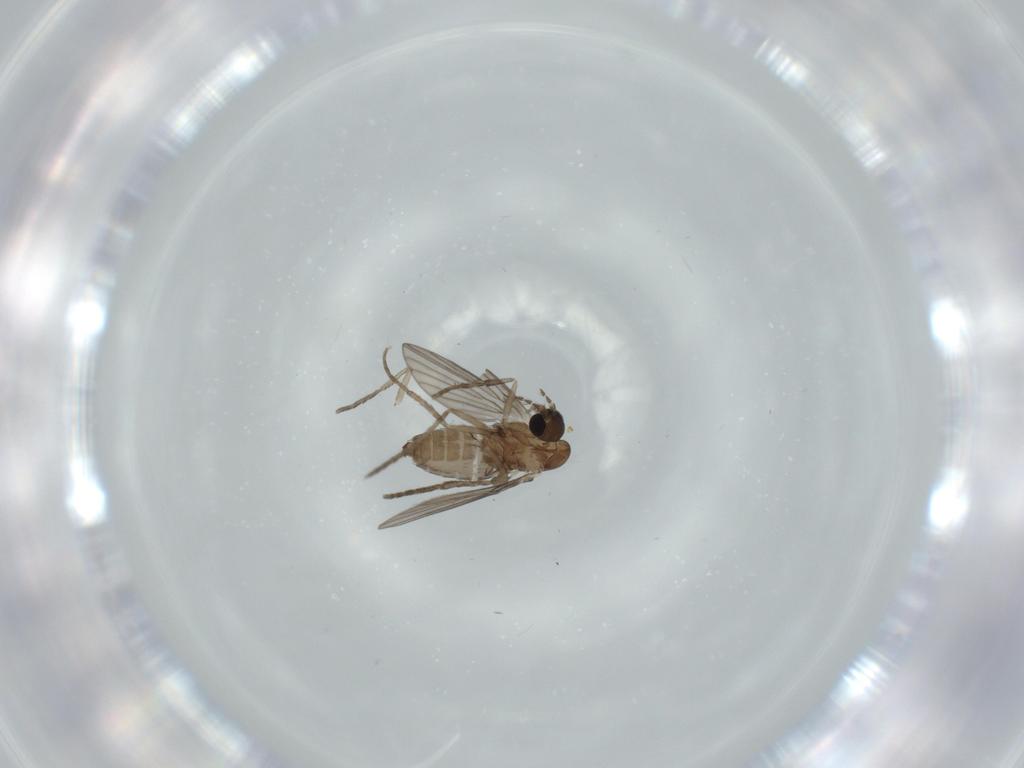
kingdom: Animalia
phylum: Arthropoda
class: Insecta
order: Diptera
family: Psychodidae
